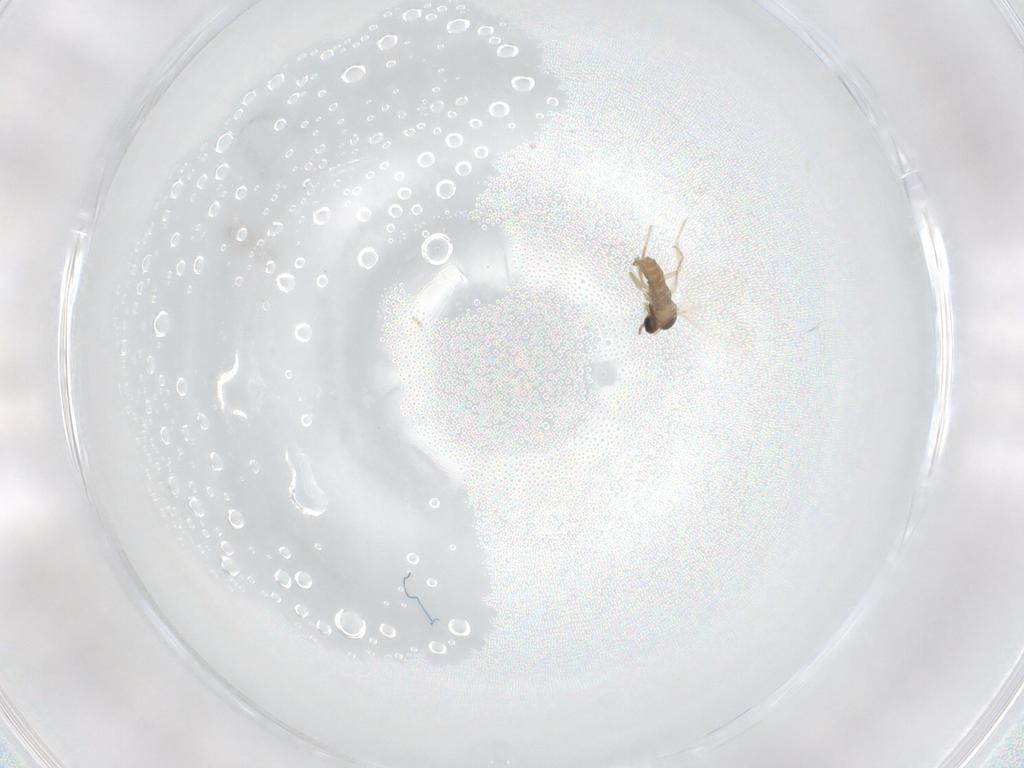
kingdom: Animalia
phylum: Arthropoda
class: Insecta
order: Diptera
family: Cecidomyiidae
